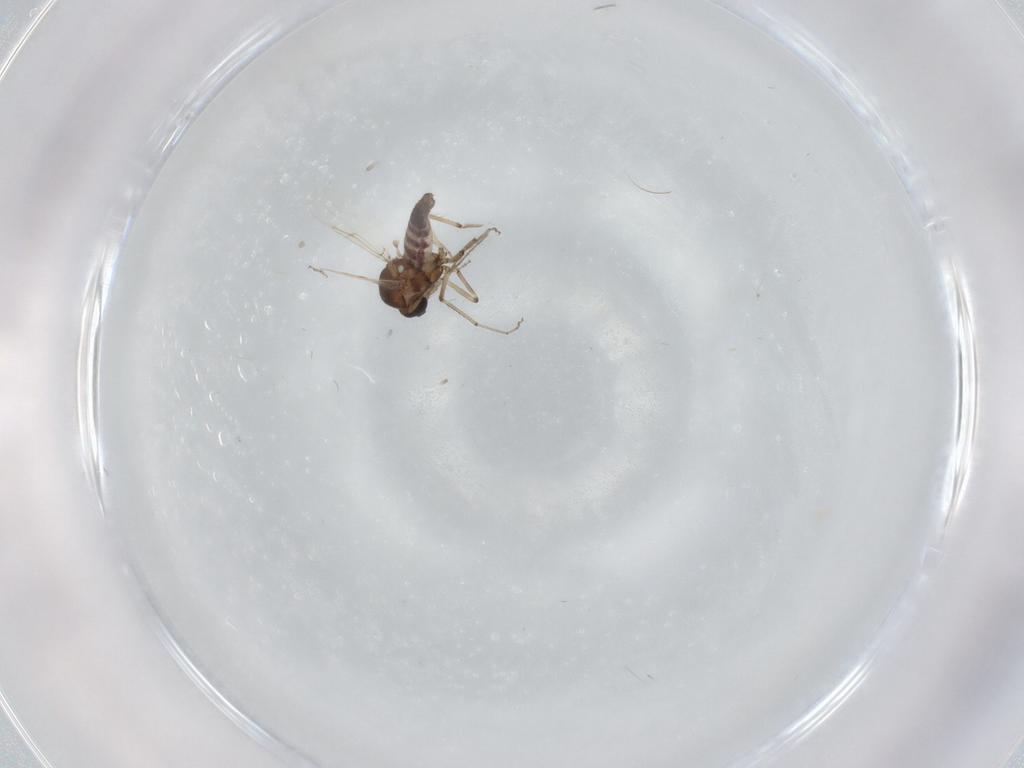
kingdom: Animalia
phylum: Arthropoda
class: Insecta
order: Diptera
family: Ceratopogonidae
